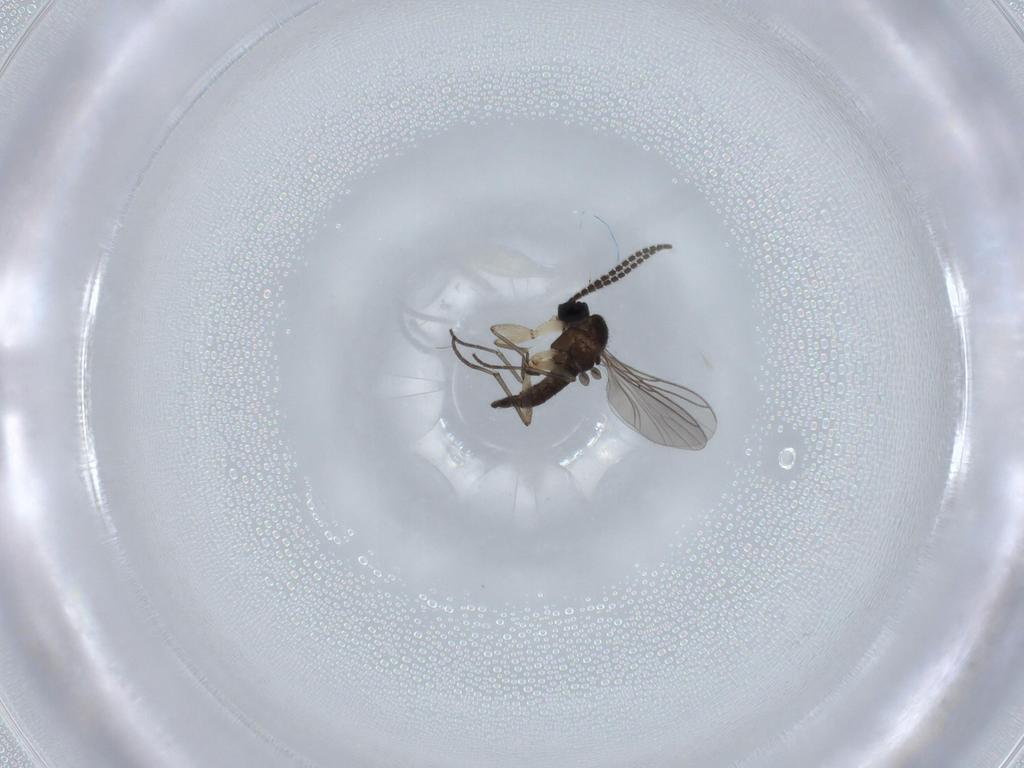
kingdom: Animalia
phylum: Arthropoda
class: Insecta
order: Diptera
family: Sciaridae
